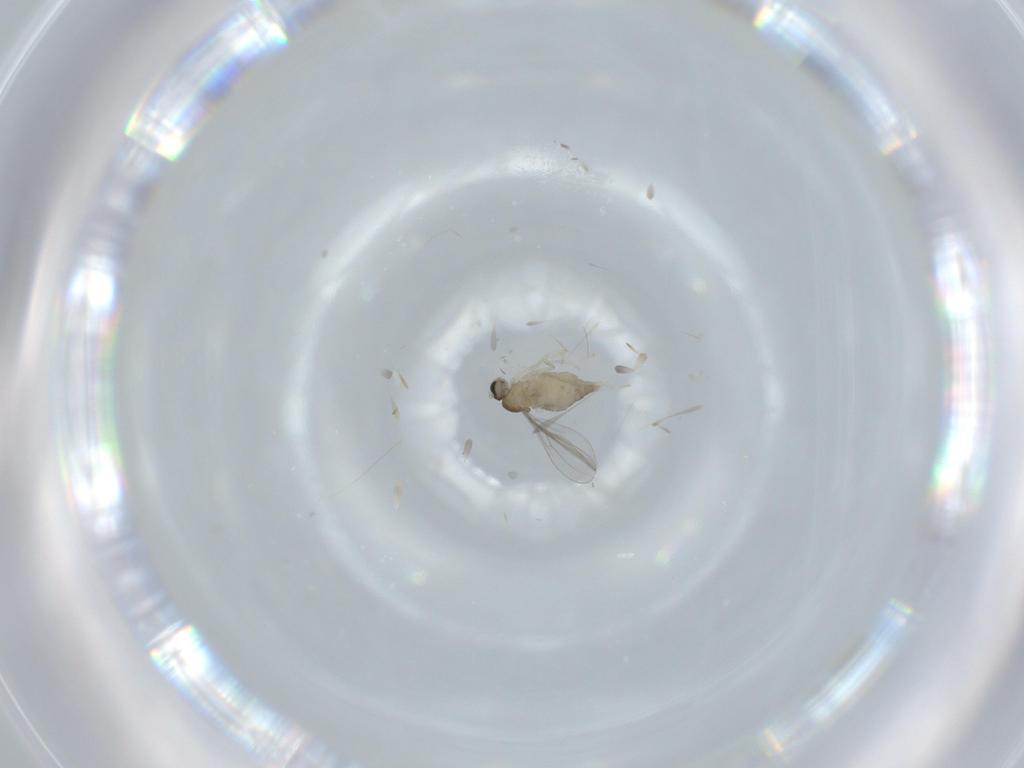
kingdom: Animalia
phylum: Arthropoda
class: Insecta
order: Diptera
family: Cecidomyiidae
